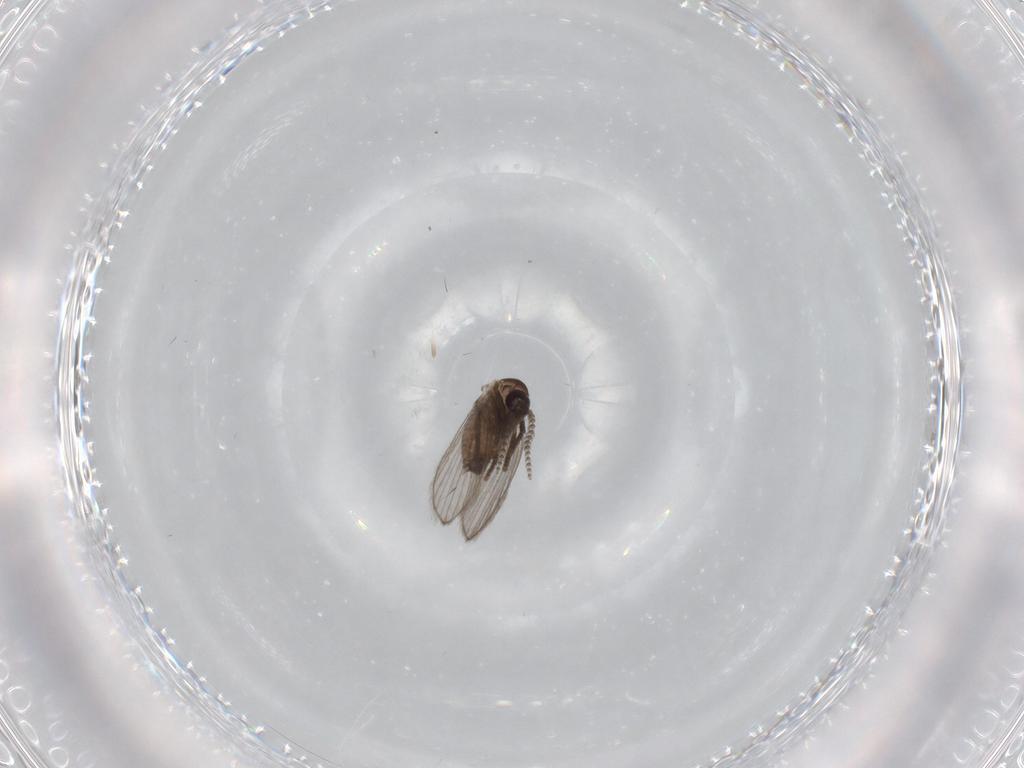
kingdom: Animalia
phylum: Arthropoda
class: Insecta
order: Diptera
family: Psychodidae
